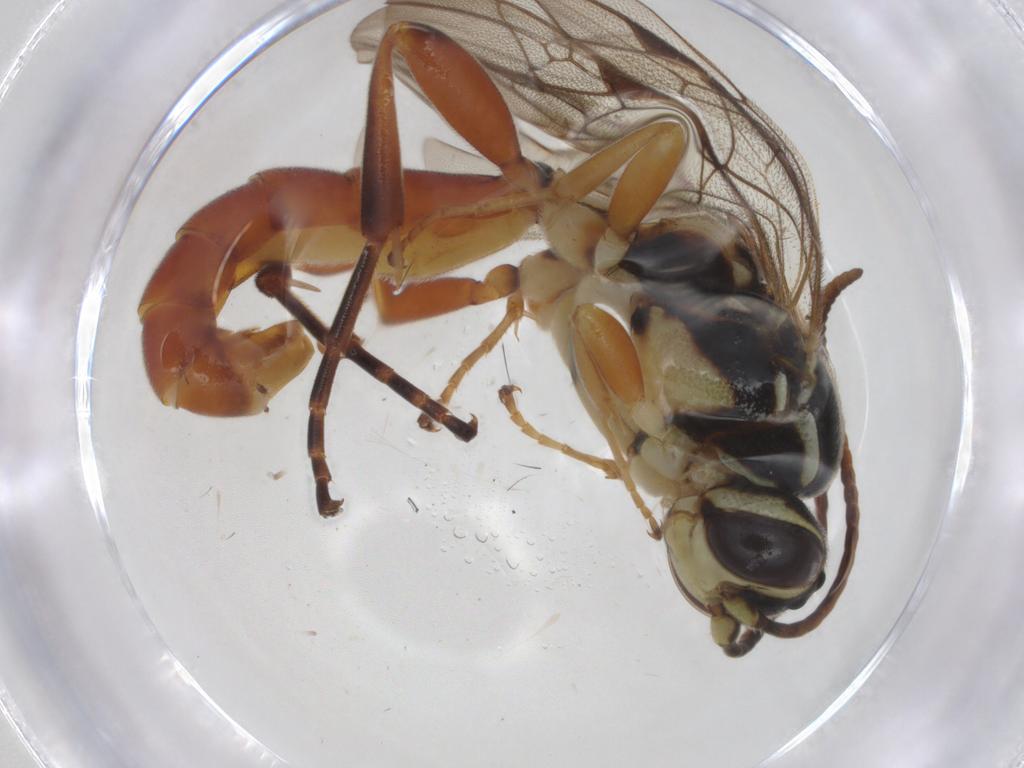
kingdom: Animalia
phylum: Arthropoda
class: Insecta
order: Hymenoptera
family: Ichneumonidae
